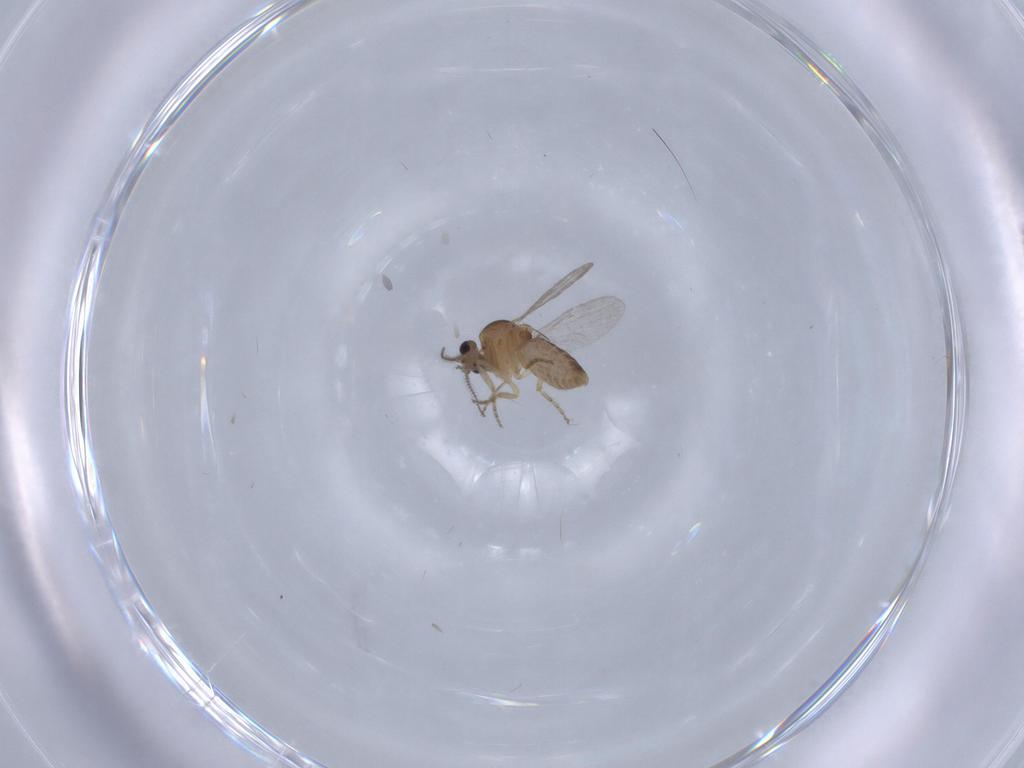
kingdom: Animalia
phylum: Arthropoda
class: Insecta
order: Diptera
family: Ceratopogonidae
